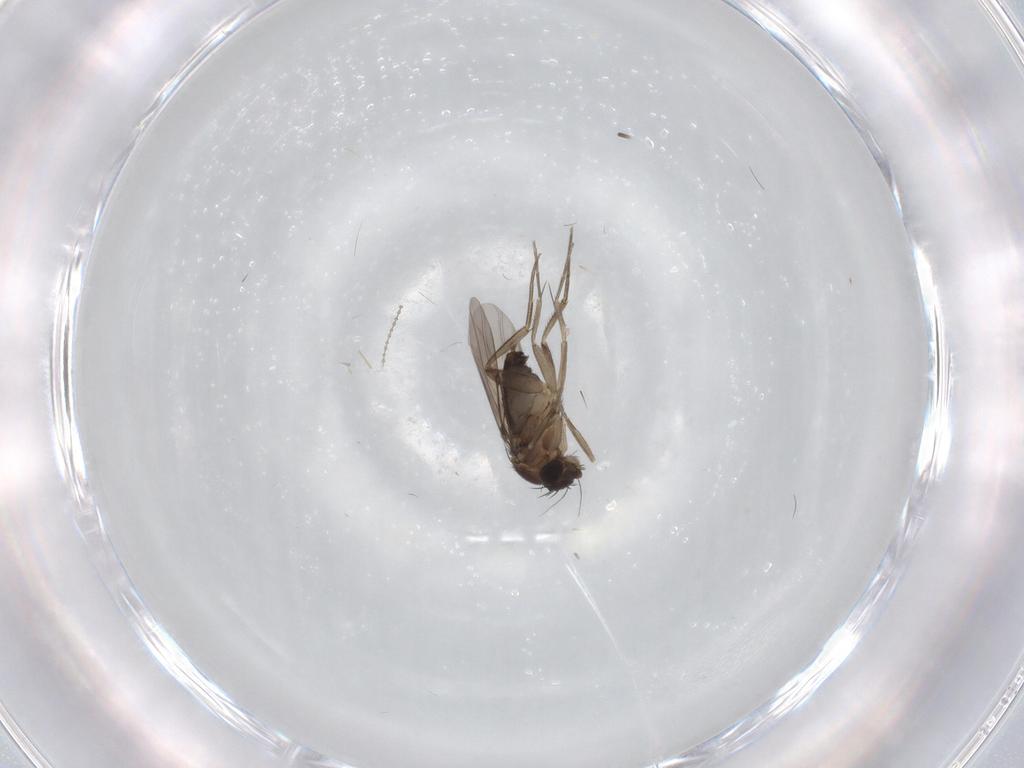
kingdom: Animalia
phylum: Arthropoda
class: Insecta
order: Diptera
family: Cecidomyiidae
